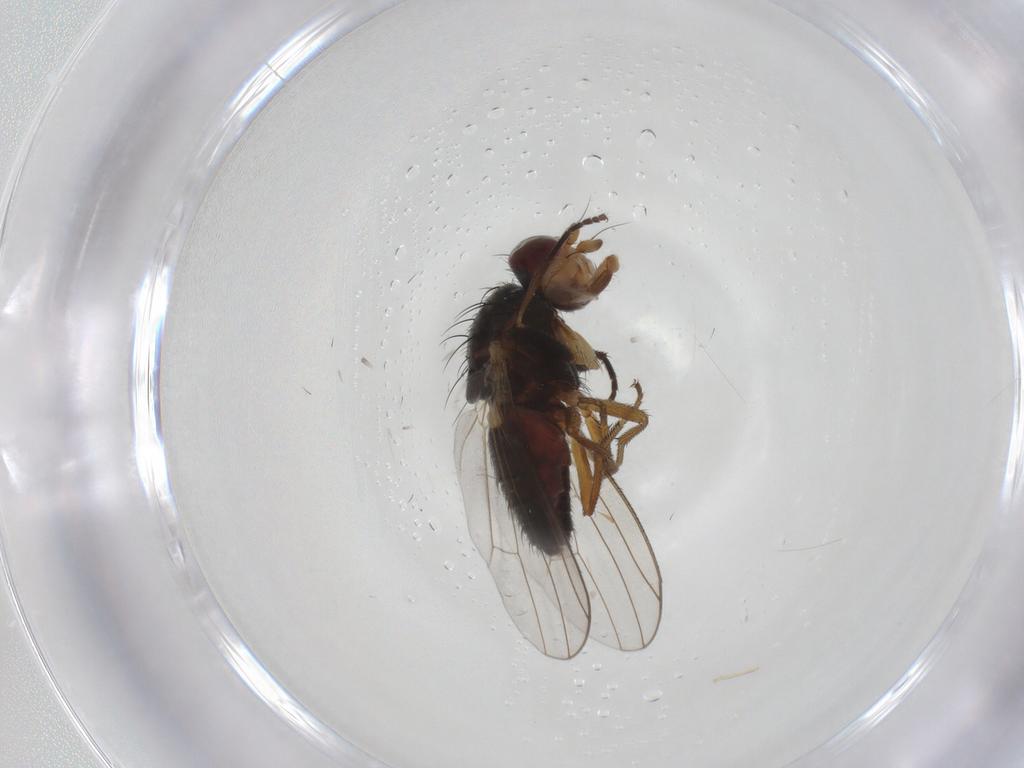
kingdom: Animalia
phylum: Arthropoda
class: Insecta
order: Diptera
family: Heleomyzidae
